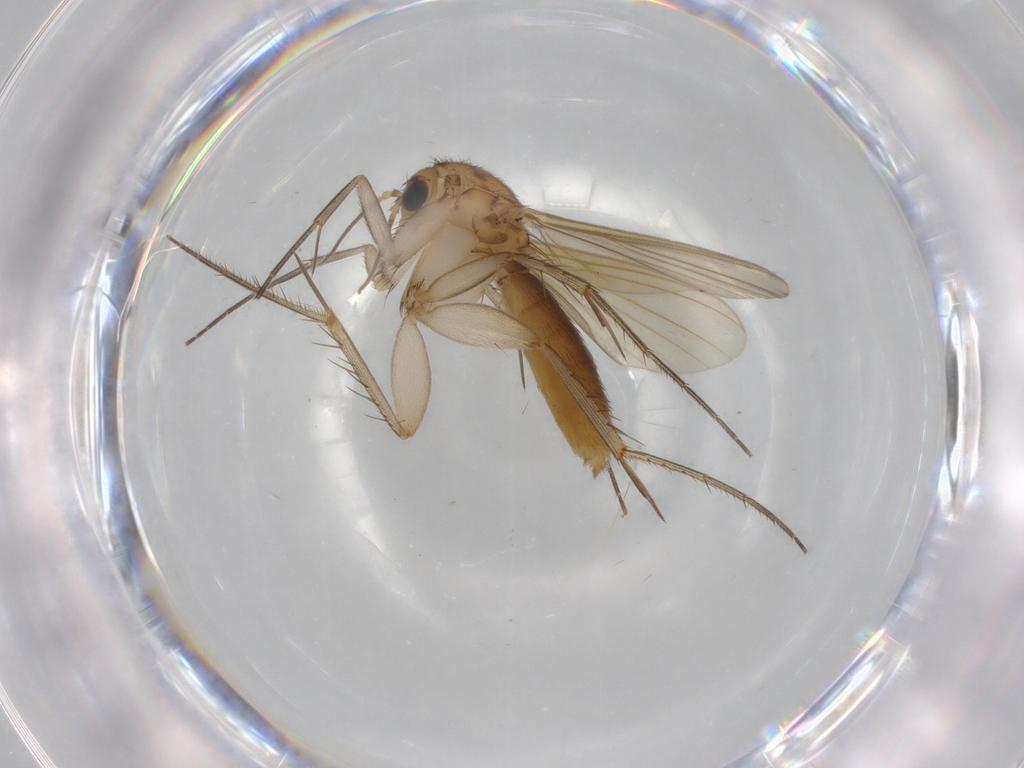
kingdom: Animalia
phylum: Arthropoda
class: Insecta
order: Diptera
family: Mycetophilidae
